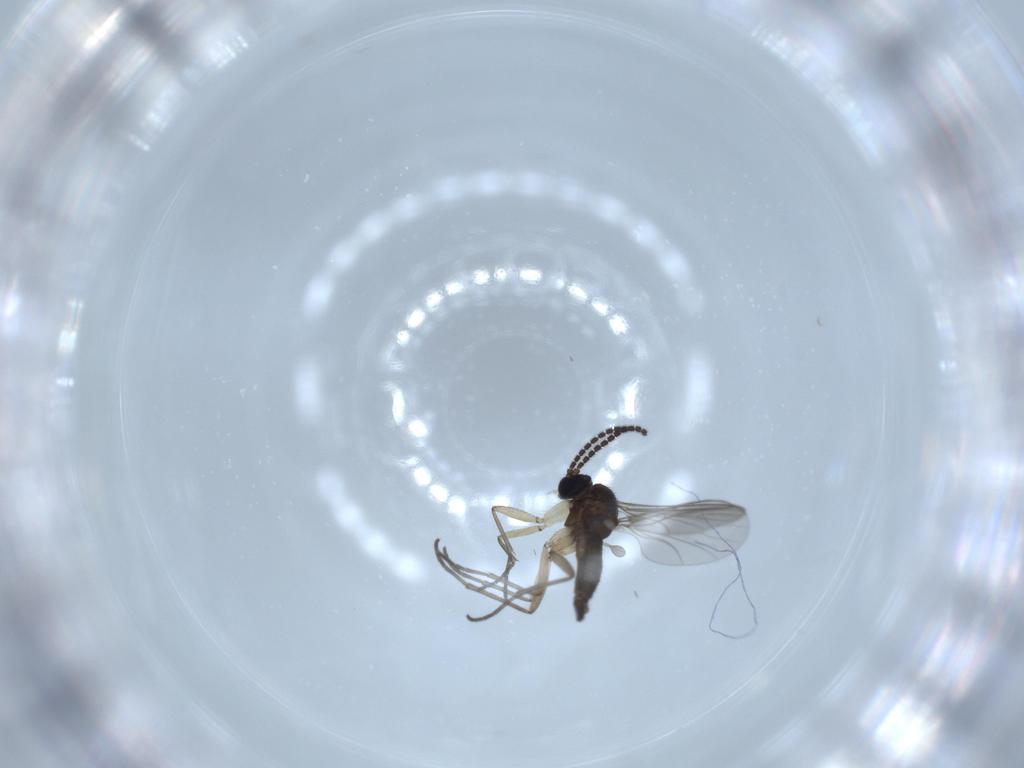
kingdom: Animalia
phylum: Arthropoda
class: Insecta
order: Diptera
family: Sciaridae
